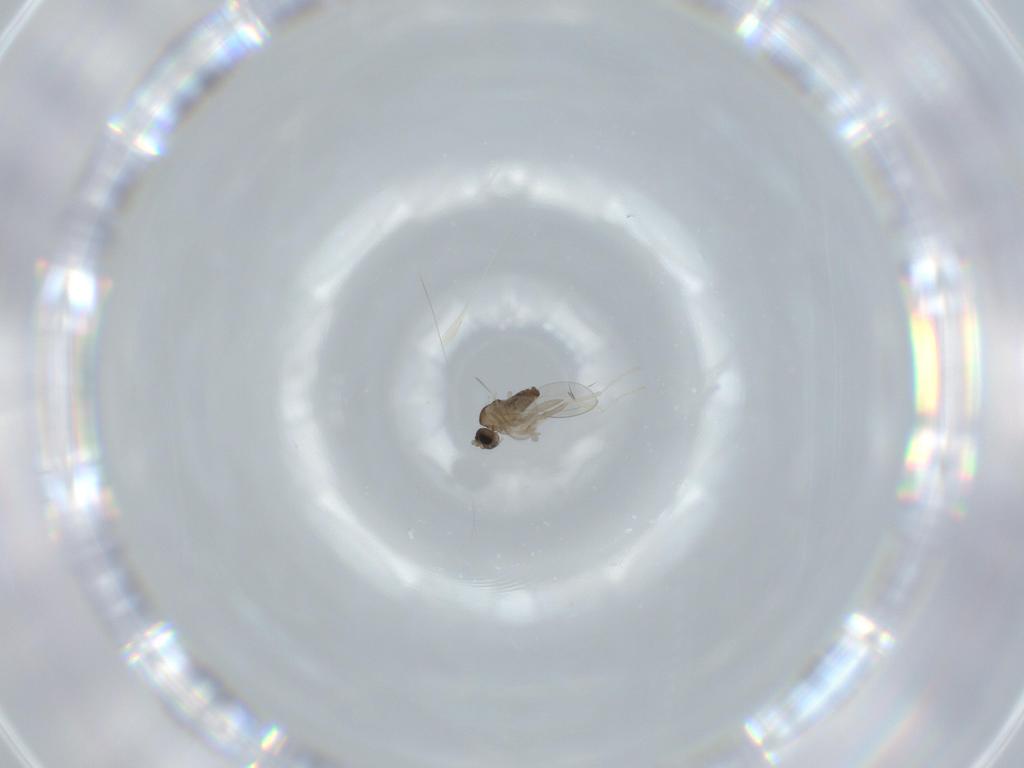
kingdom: Animalia
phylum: Arthropoda
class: Insecta
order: Diptera
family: Cecidomyiidae
